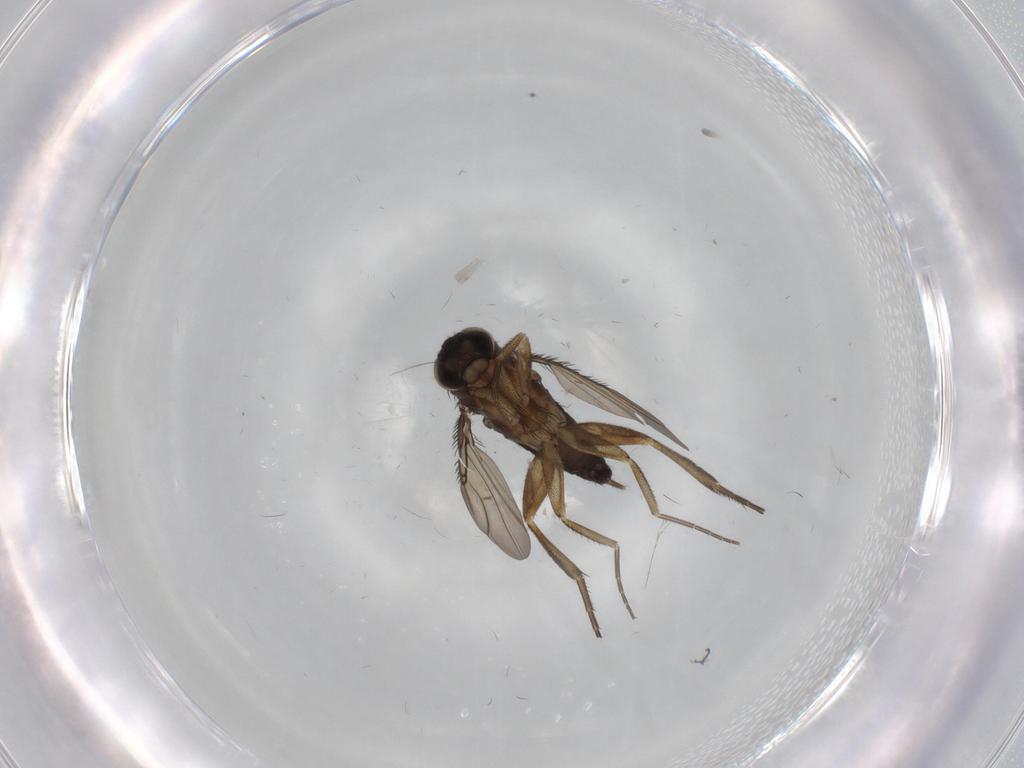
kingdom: Animalia
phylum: Arthropoda
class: Insecta
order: Diptera
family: Phoridae
